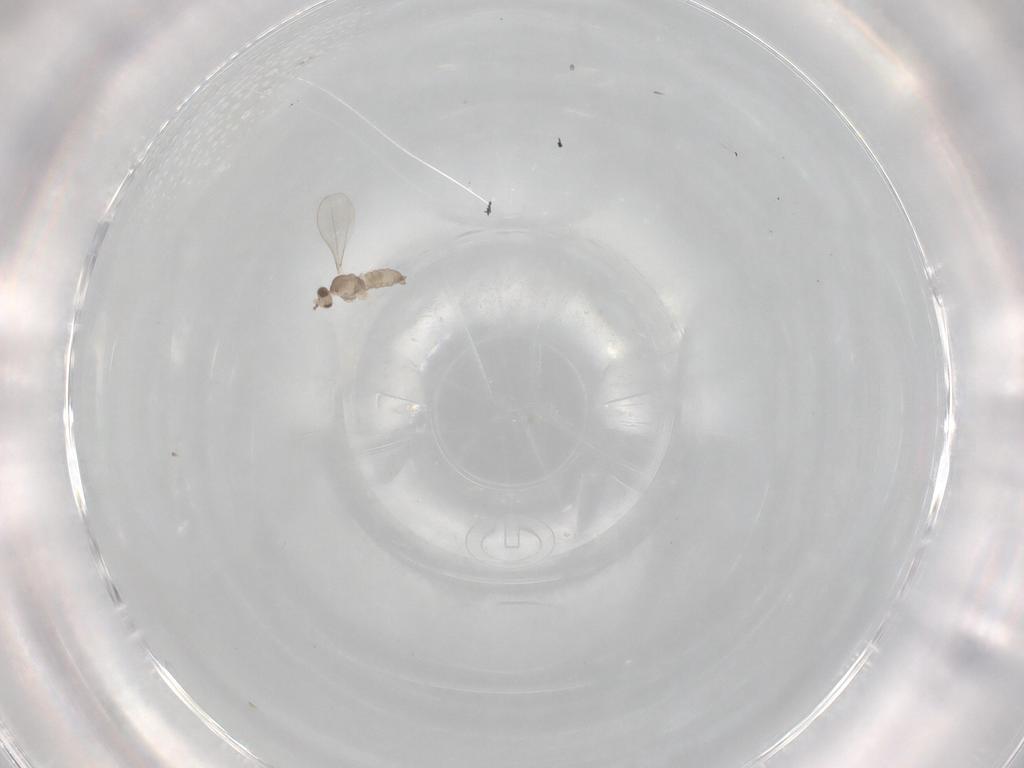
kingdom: Animalia
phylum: Arthropoda
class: Insecta
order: Diptera
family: Cecidomyiidae
